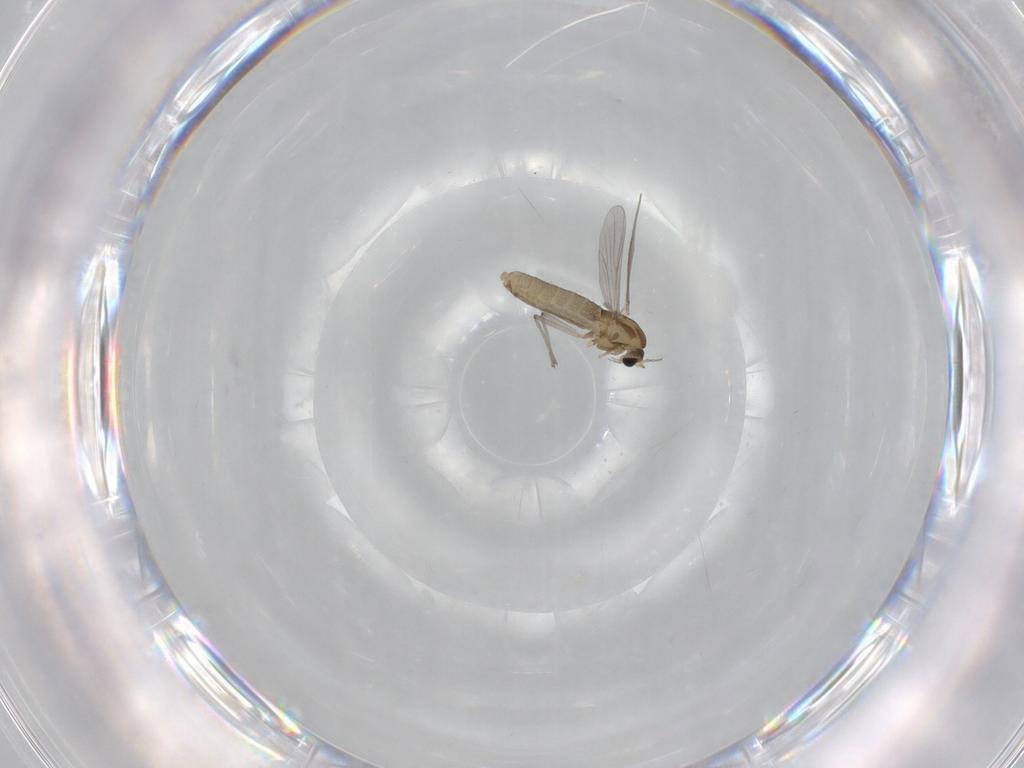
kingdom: Animalia
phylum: Arthropoda
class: Insecta
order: Diptera
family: Micropezidae
